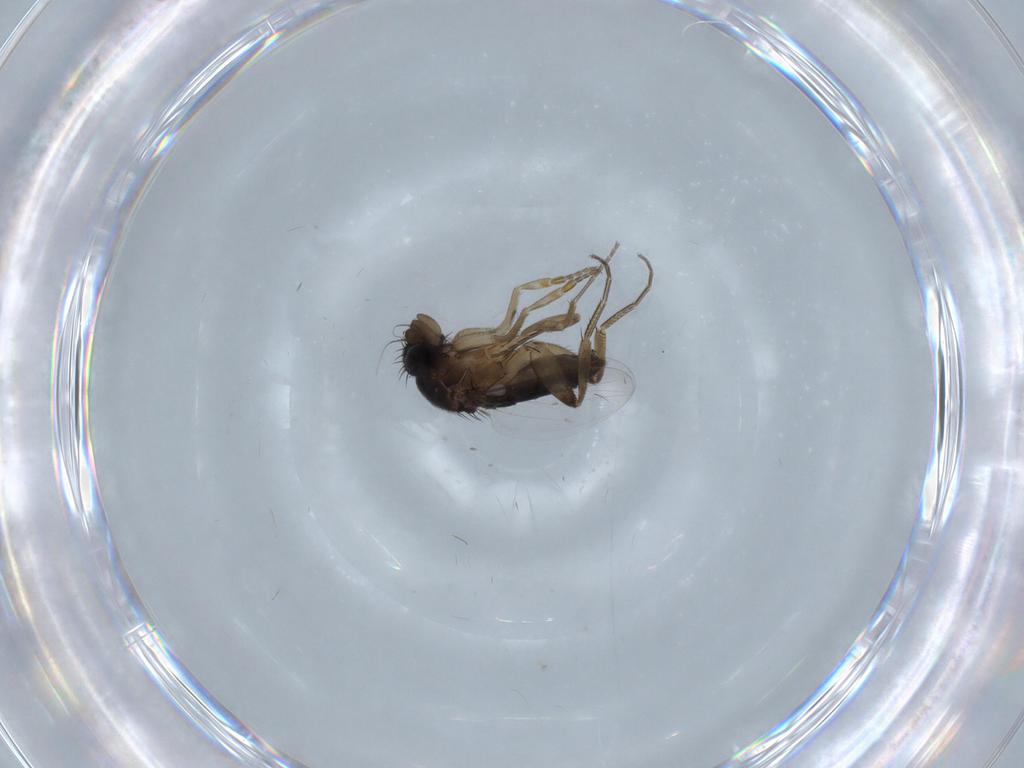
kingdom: Animalia
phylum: Arthropoda
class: Insecta
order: Diptera
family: Phoridae
